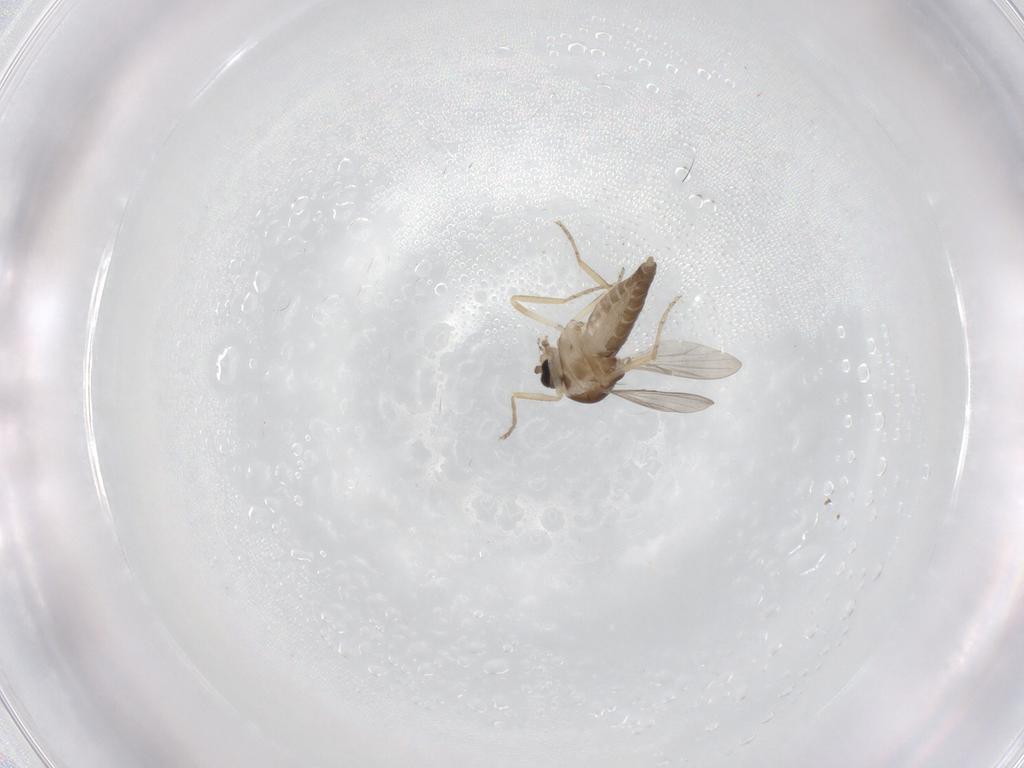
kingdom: Animalia
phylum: Arthropoda
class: Insecta
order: Diptera
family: Ceratopogonidae
